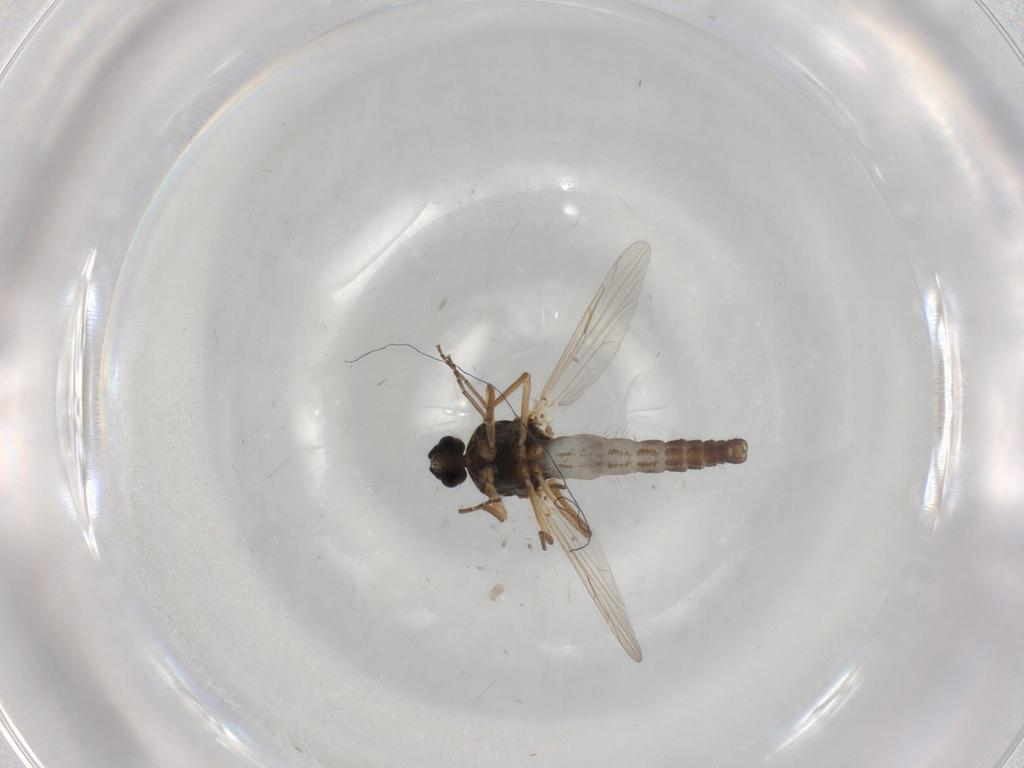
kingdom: Animalia
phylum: Arthropoda
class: Insecta
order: Diptera
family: Ceratopogonidae
